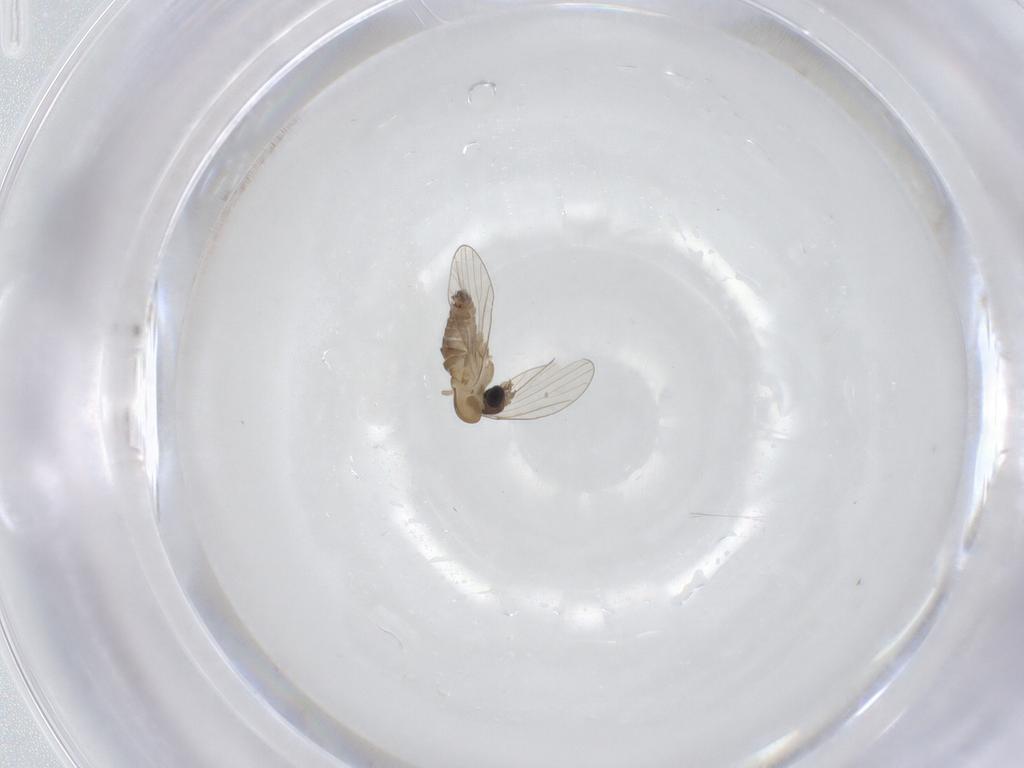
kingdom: Animalia
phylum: Arthropoda
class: Insecta
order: Diptera
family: Psychodidae
